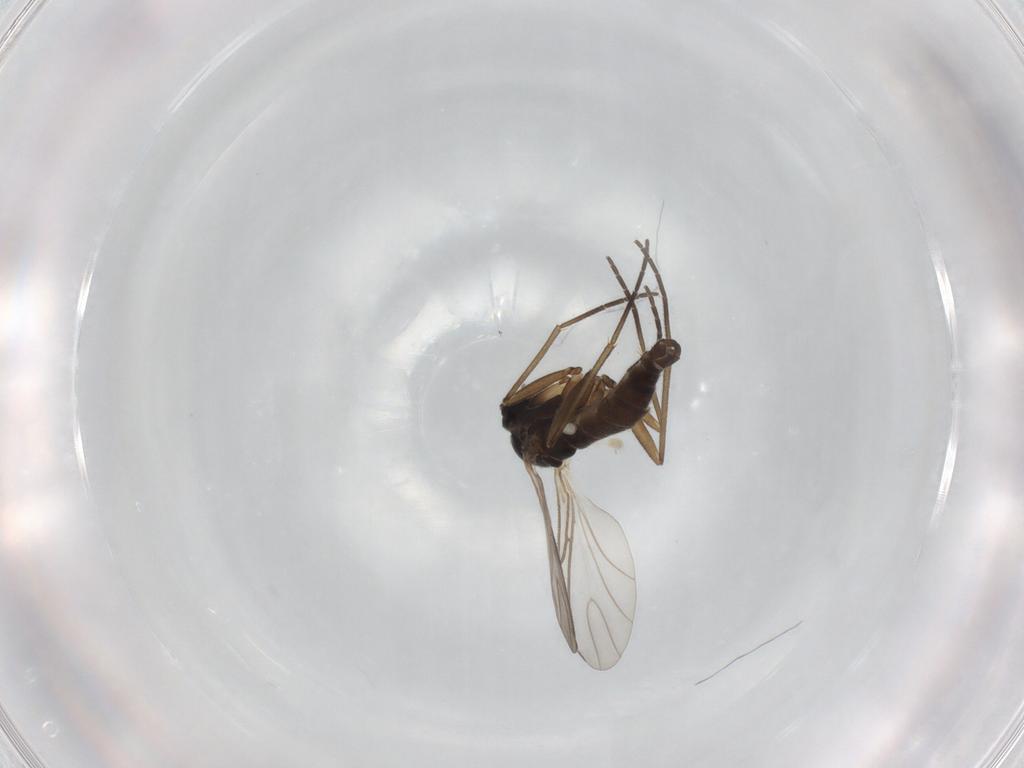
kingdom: Animalia
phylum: Arthropoda
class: Insecta
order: Diptera
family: Sciaridae
